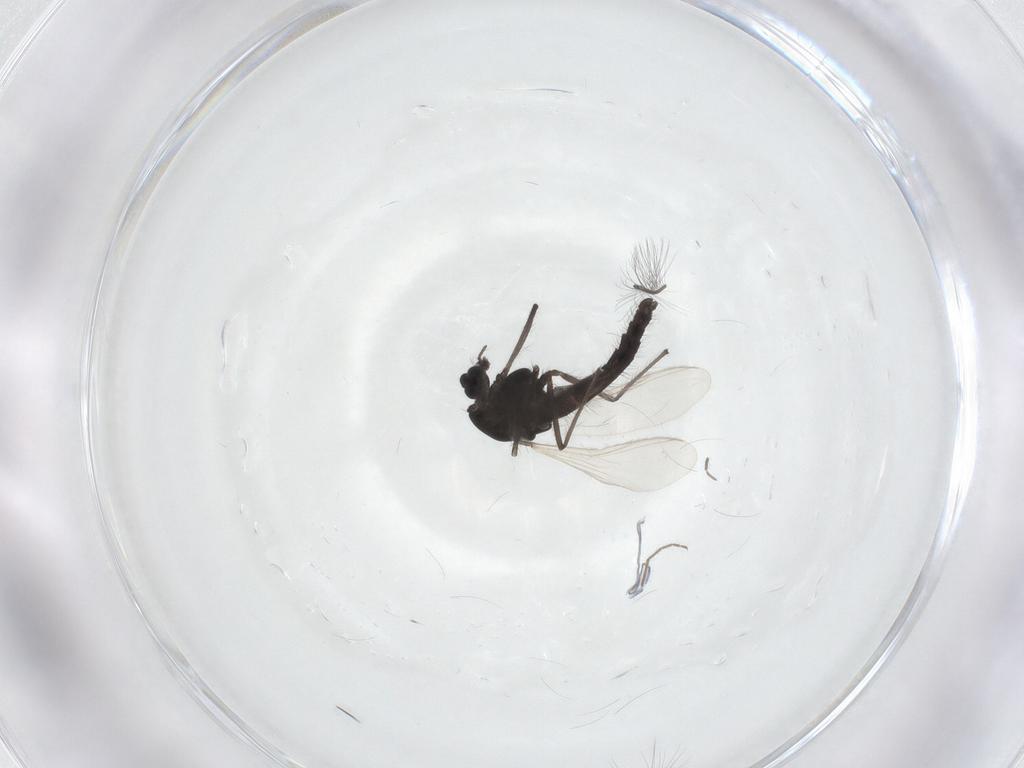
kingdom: Animalia
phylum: Arthropoda
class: Insecta
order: Diptera
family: Chironomidae
